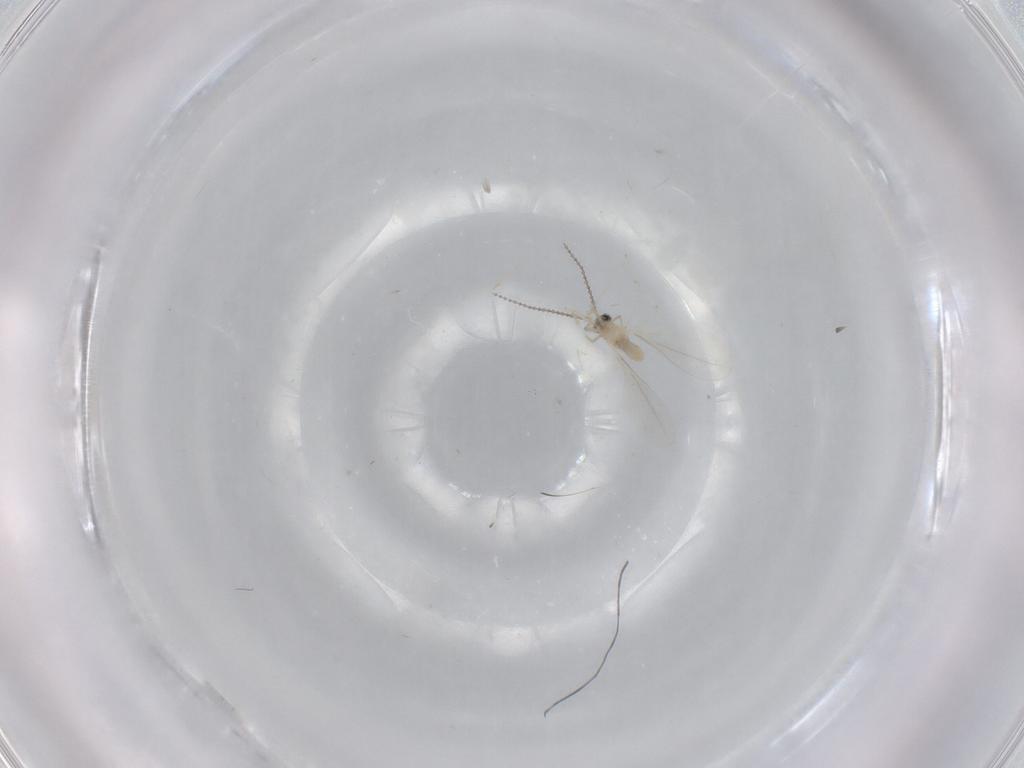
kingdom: Animalia
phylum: Arthropoda
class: Insecta
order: Diptera
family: Cecidomyiidae
